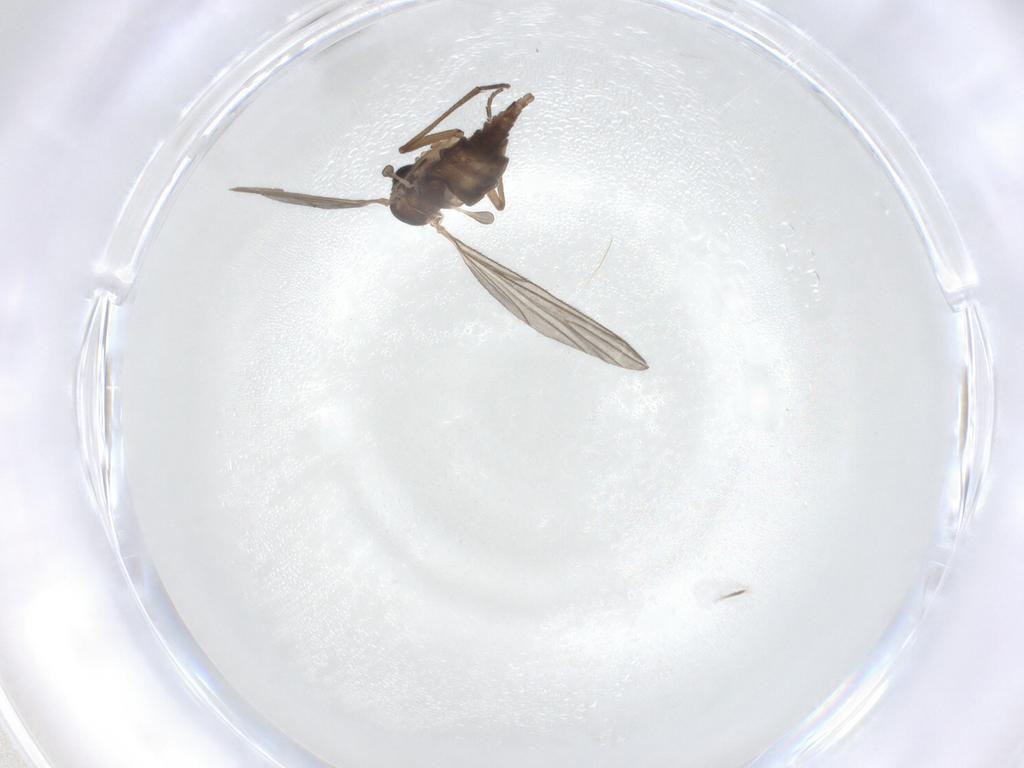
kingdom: Animalia
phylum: Arthropoda
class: Insecta
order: Diptera
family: Sciaridae
